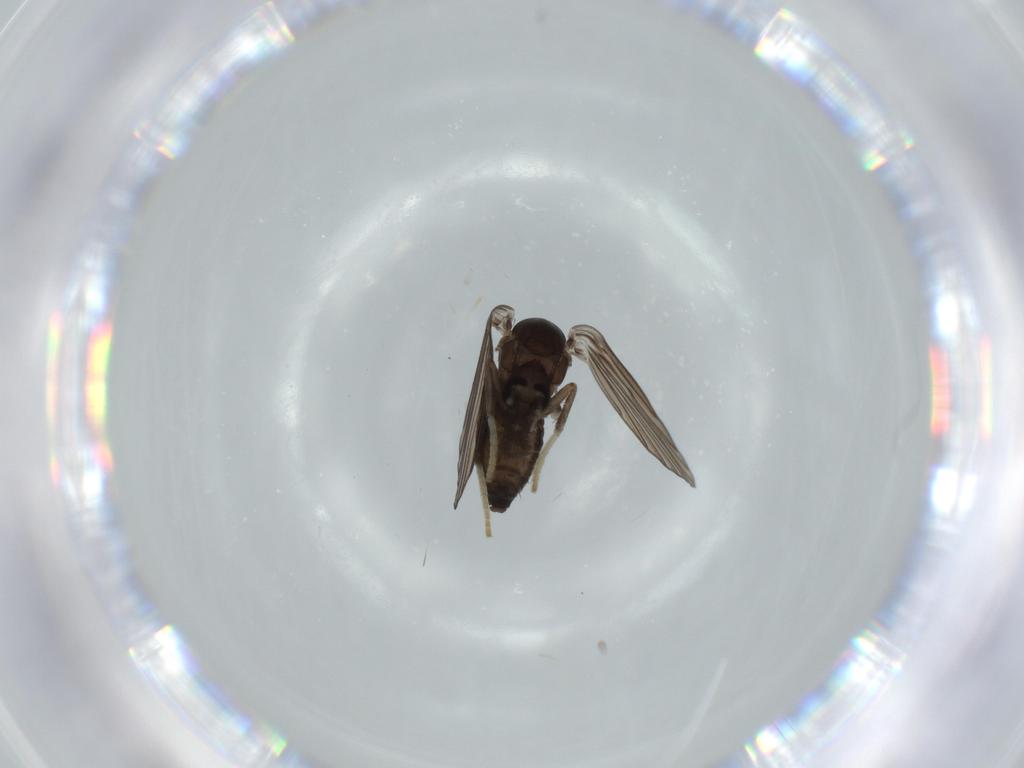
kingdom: Animalia
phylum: Arthropoda
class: Insecta
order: Diptera
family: Psychodidae
